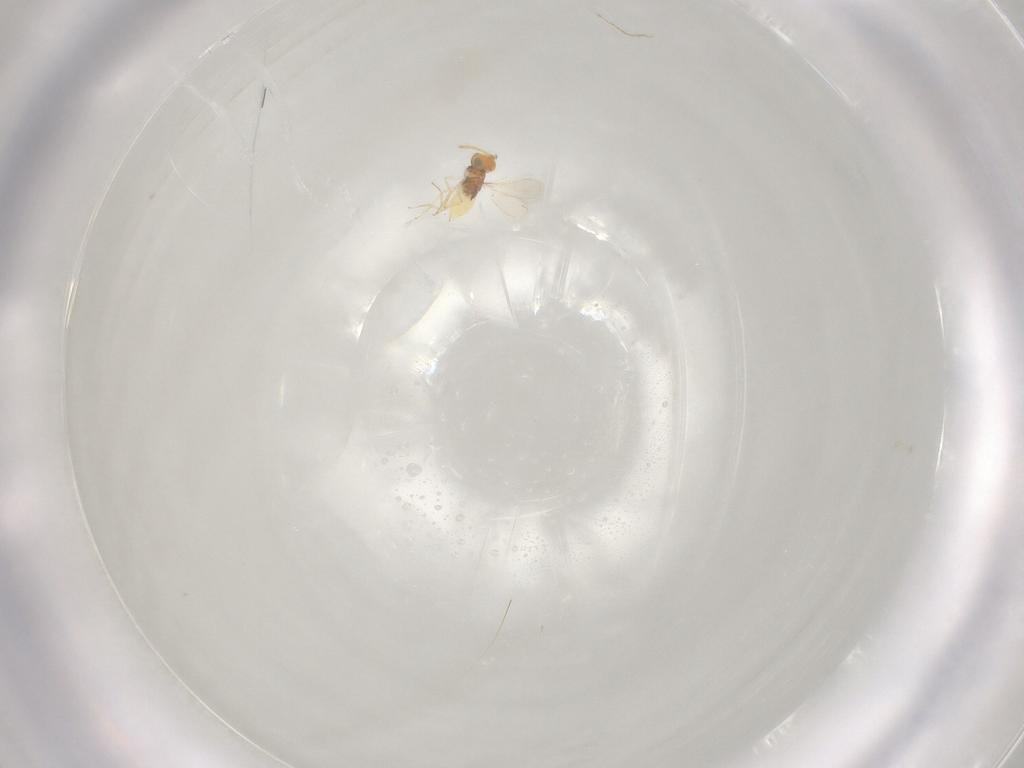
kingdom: Animalia
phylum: Arthropoda
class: Insecta
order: Hymenoptera
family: Aphelinidae
